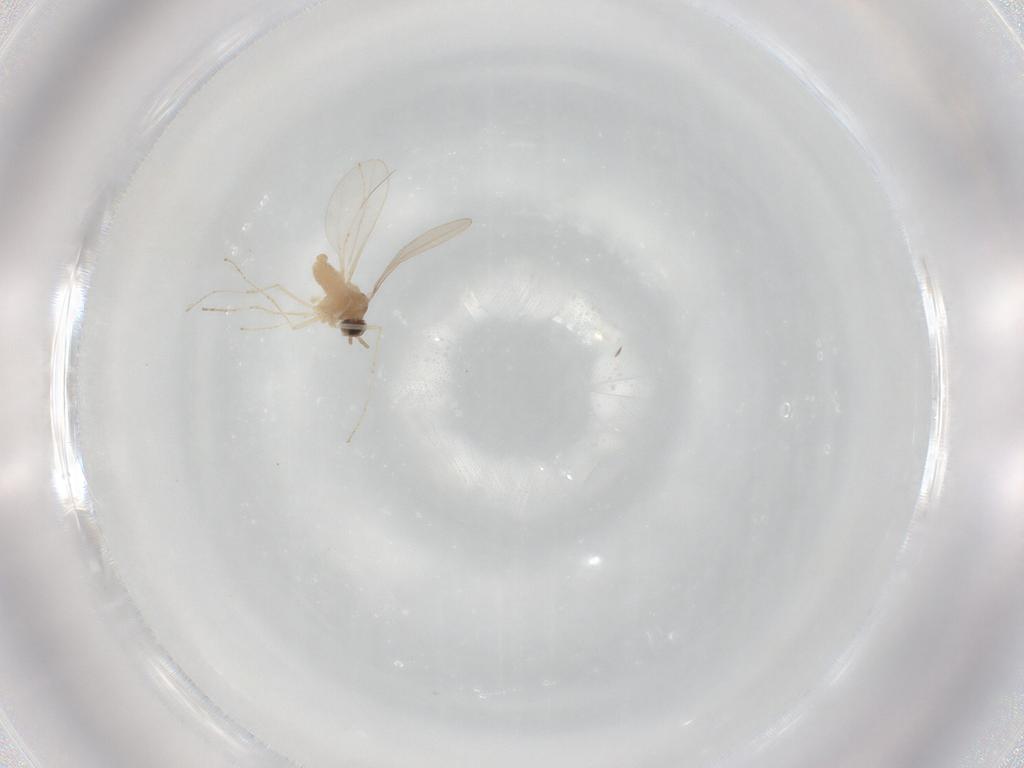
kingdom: Animalia
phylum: Arthropoda
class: Insecta
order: Diptera
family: Cecidomyiidae
